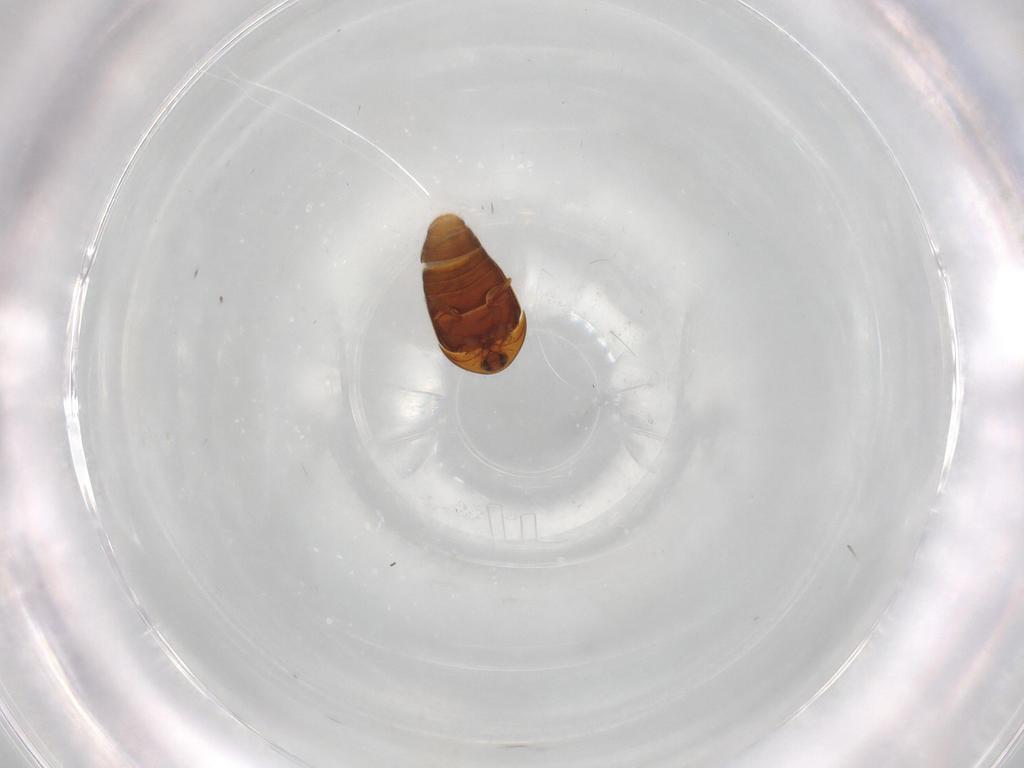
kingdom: Animalia
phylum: Arthropoda
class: Insecta
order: Coleoptera
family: Corylophidae
